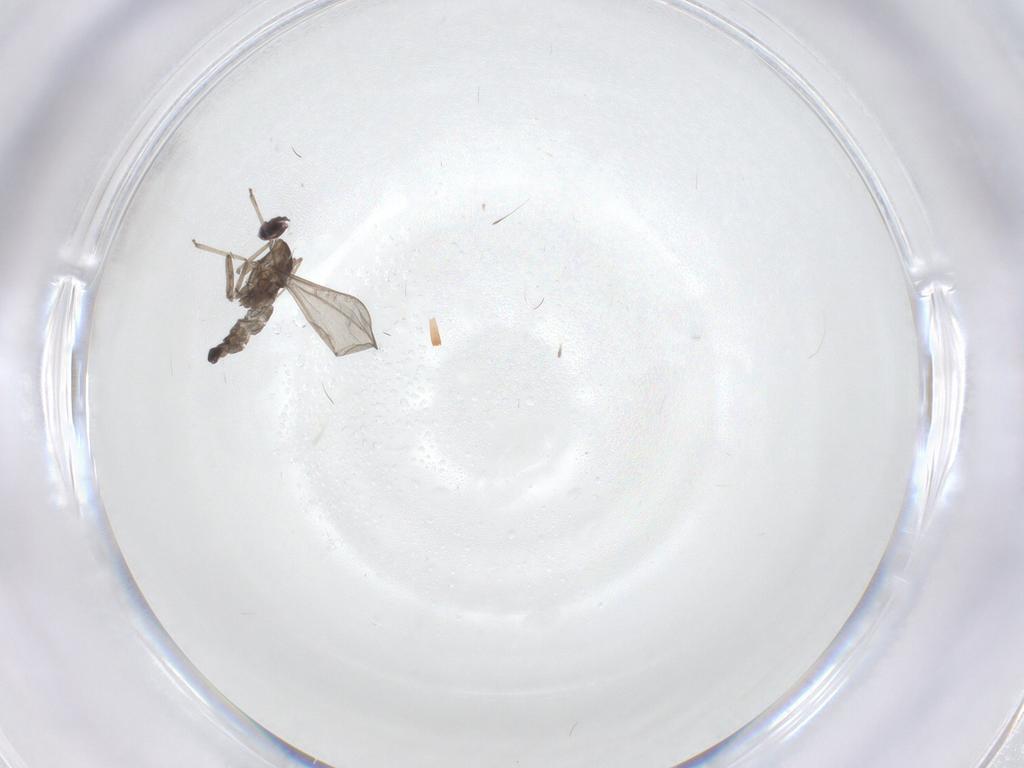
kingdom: Animalia
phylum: Arthropoda
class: Insecta
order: Diptera
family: Cecidomyiidae
